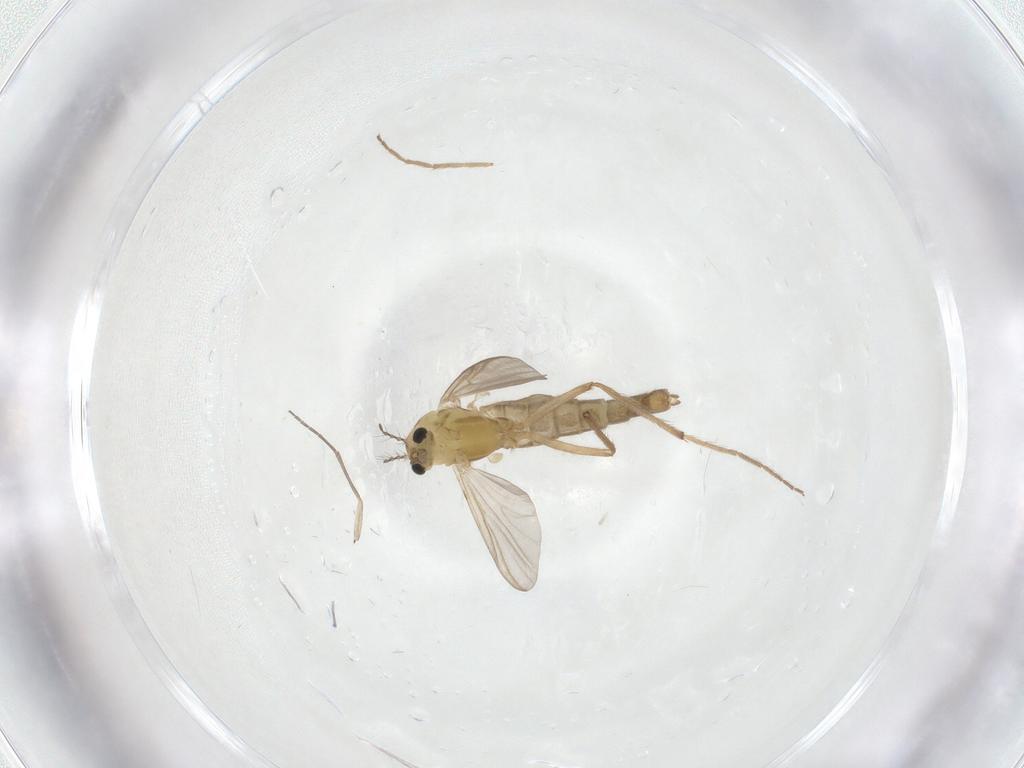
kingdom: Animalia
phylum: Arthropoda
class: Insecta
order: Diptera
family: Chironomidae
